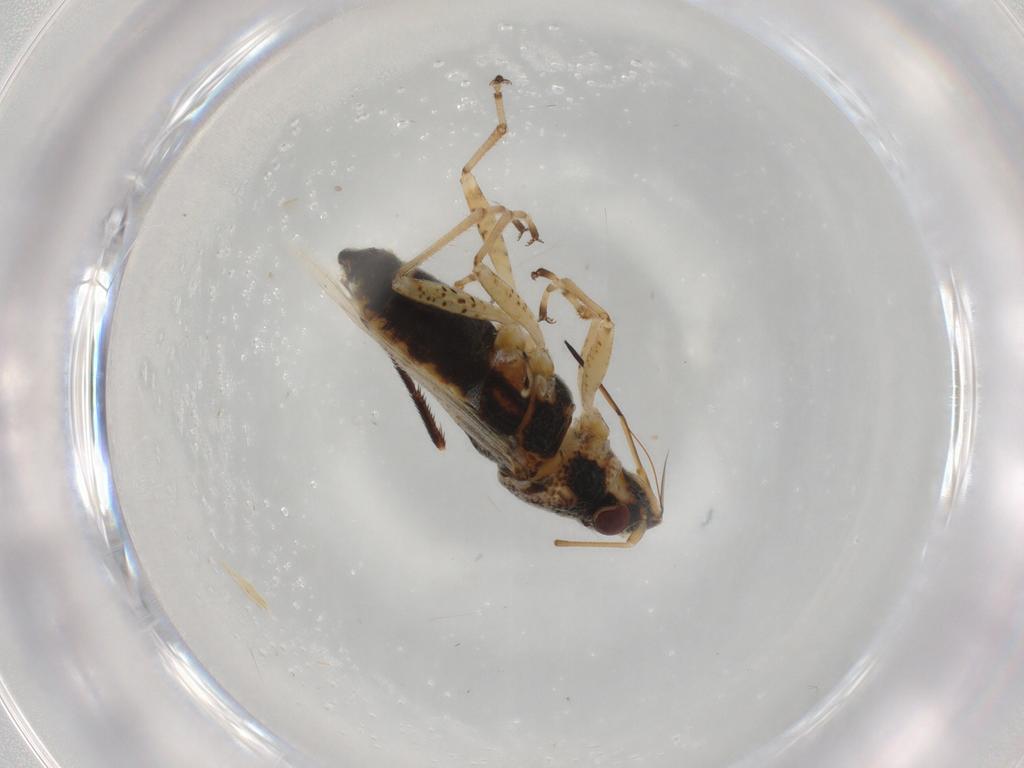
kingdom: Animalia
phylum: Arthropoda
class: Insecta
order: Hemiptera
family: Lygaeidae
